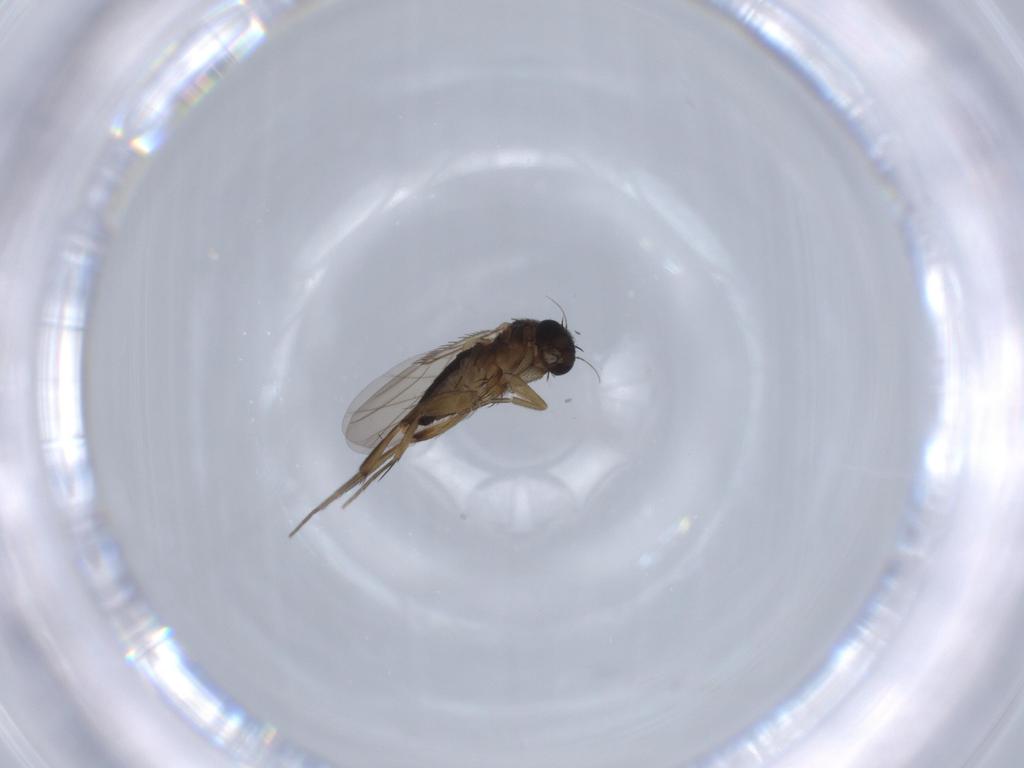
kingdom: Animalia
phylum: Arthropoda
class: Insecta
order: Diptera
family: Phoridae
